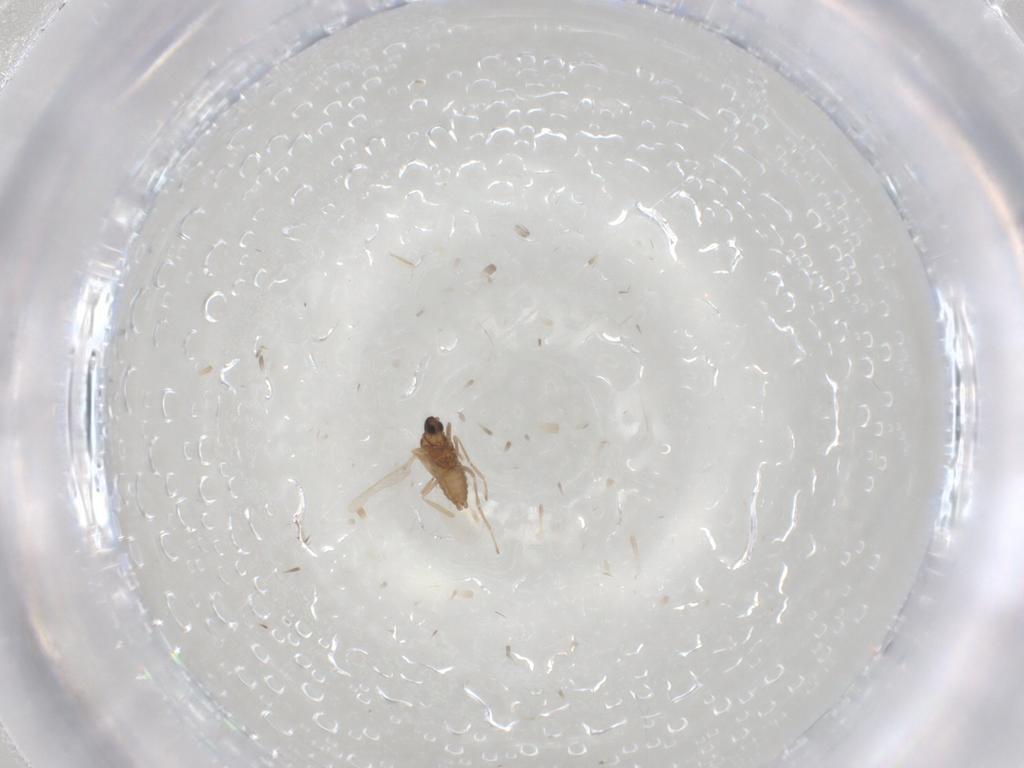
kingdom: Animalia
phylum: Arthropoda
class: Insecta
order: Diptera
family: Cecidomyiidae
